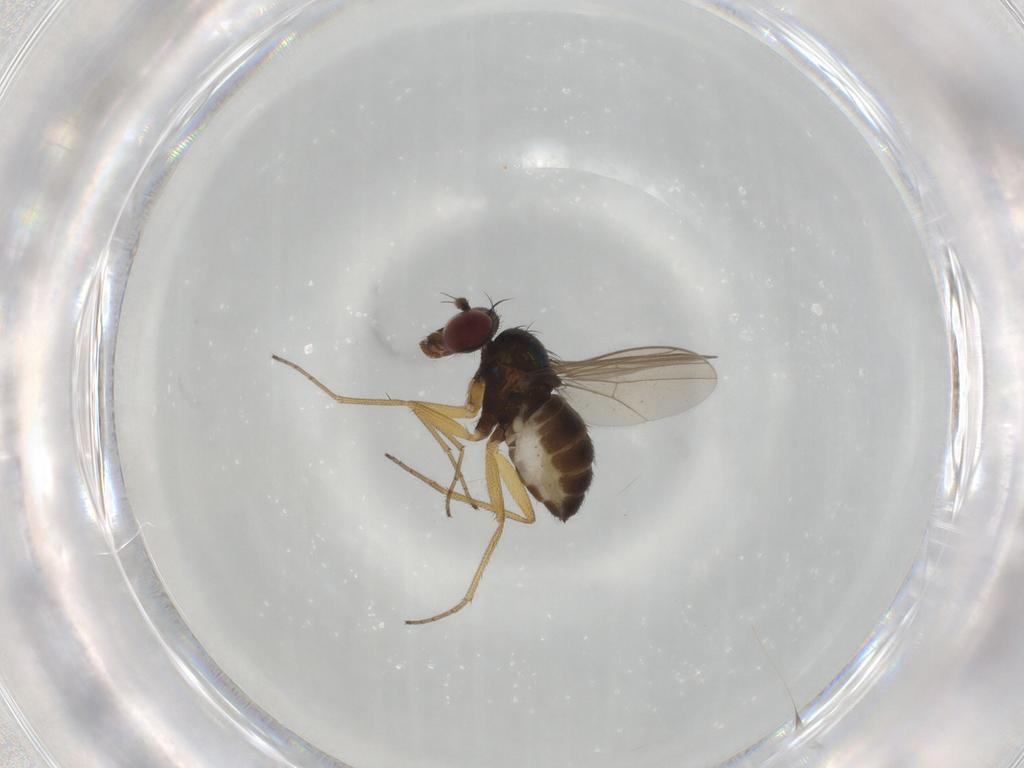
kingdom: Animalia
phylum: Arthropoda
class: Insecta
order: Diptera
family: Dolichopodidae
